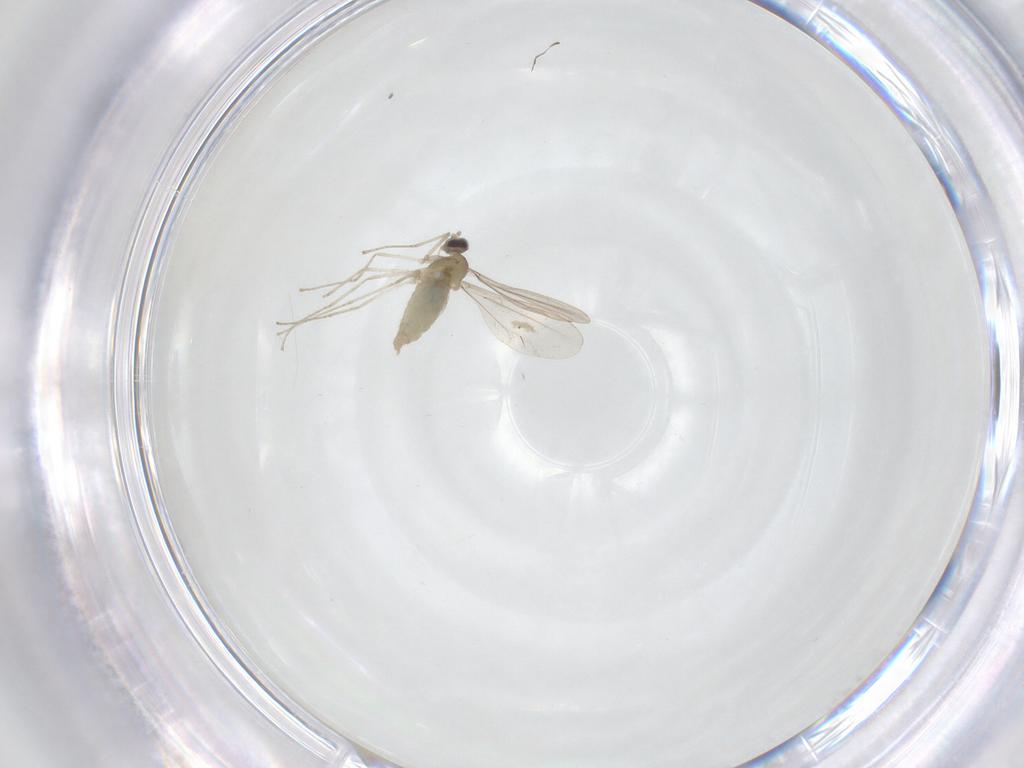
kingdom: Animalia
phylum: Arthropoda
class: Insecta
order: Diptera
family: Cecidomyiidae
